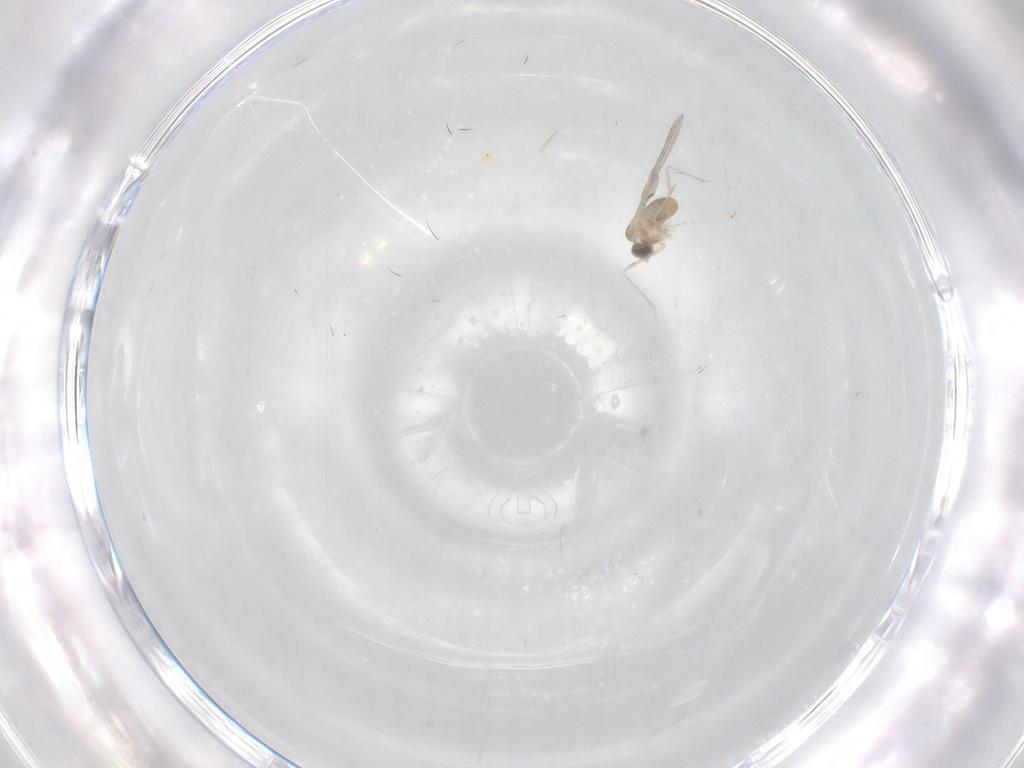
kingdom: Animalia
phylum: Arthropoda
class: Insecta
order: Diptera
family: Cecidomyiidae
